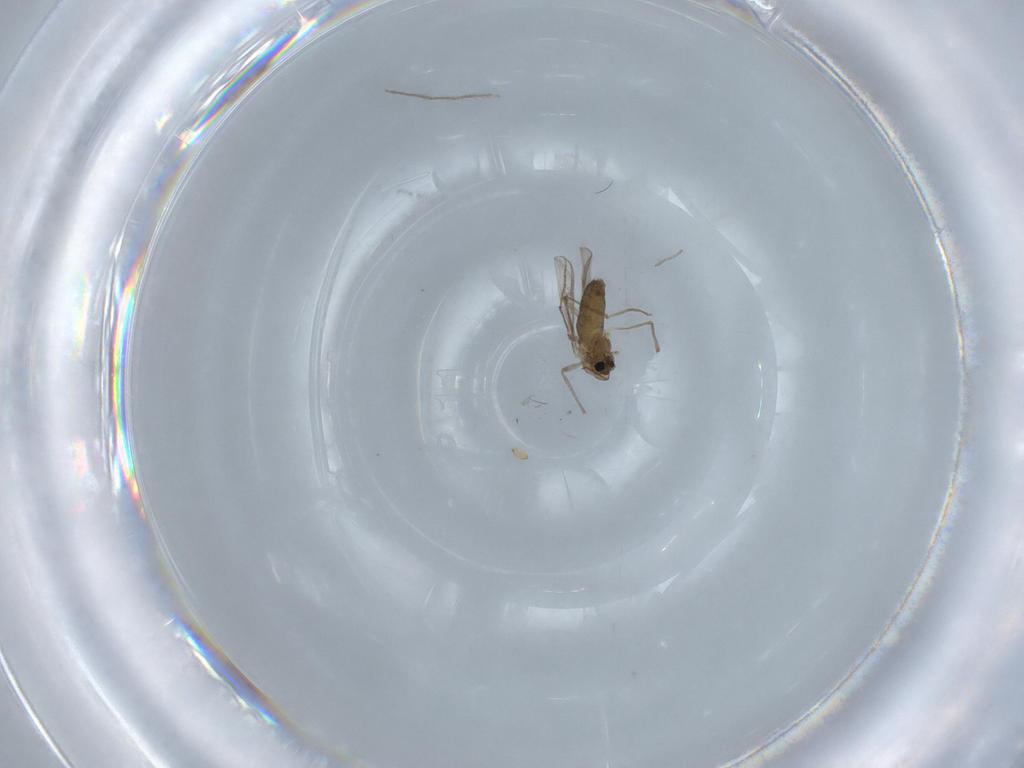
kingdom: Animalia
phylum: Arthropoda
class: Insecta
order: Diptera
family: Chironomidae
